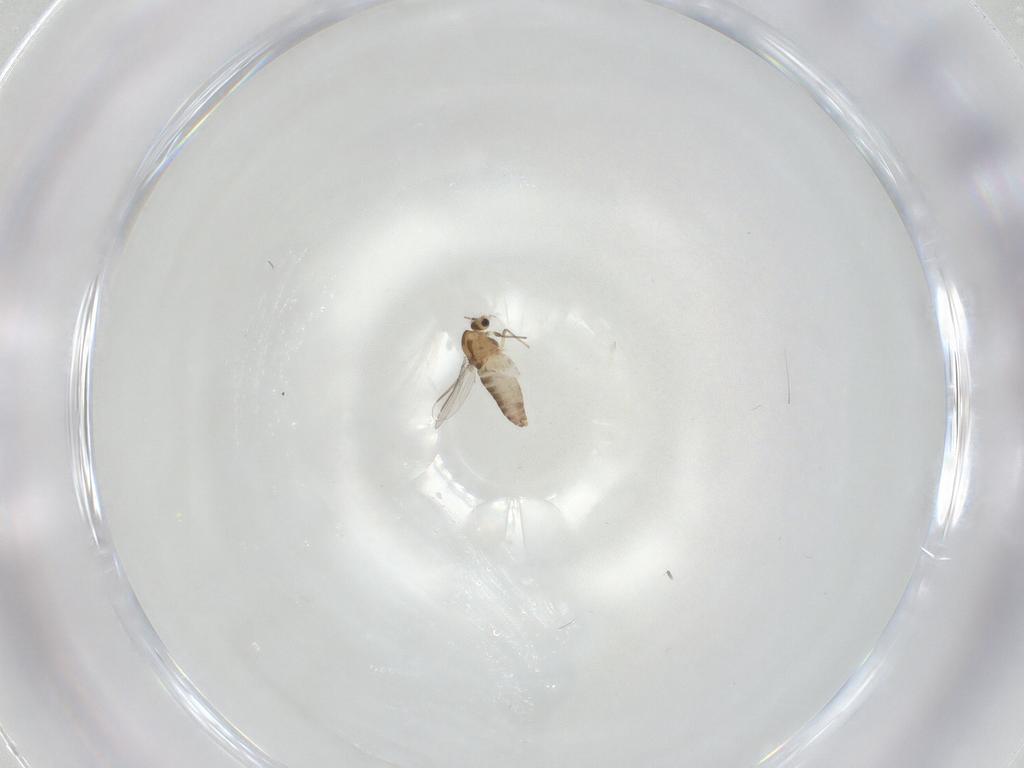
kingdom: Animalia
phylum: Arthropoda
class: Insecta
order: Diptera
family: Chironomidae
